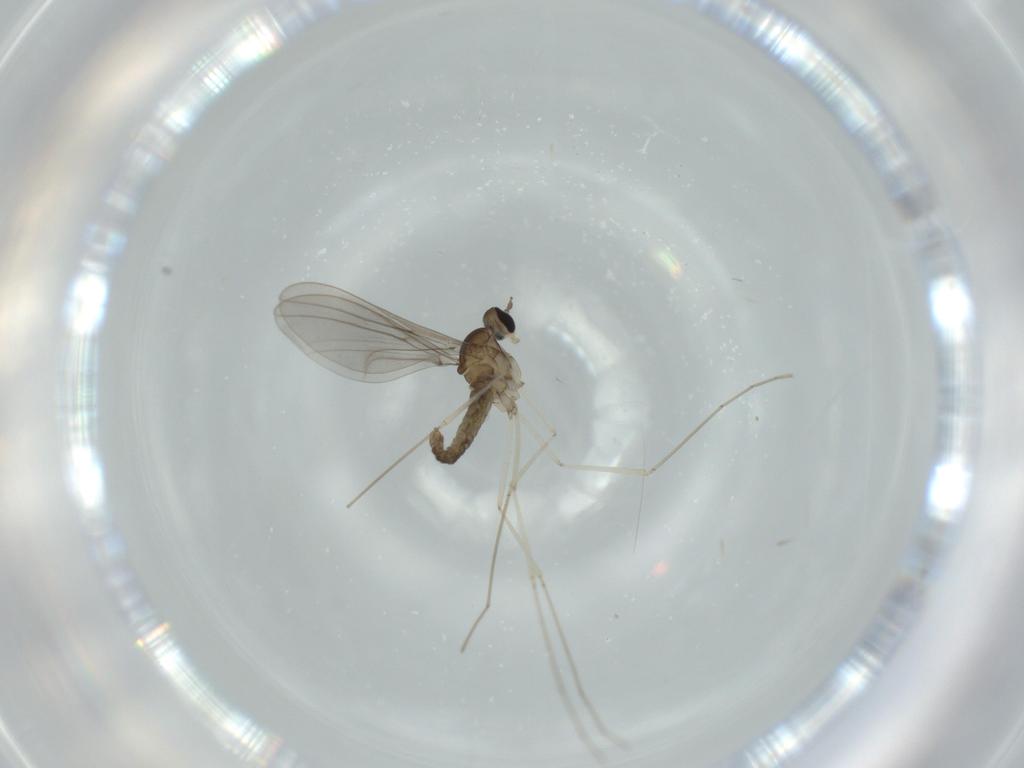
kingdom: Animalia
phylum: Arthropoda
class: Insecta
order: Diptera
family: Cecidomyiidae
